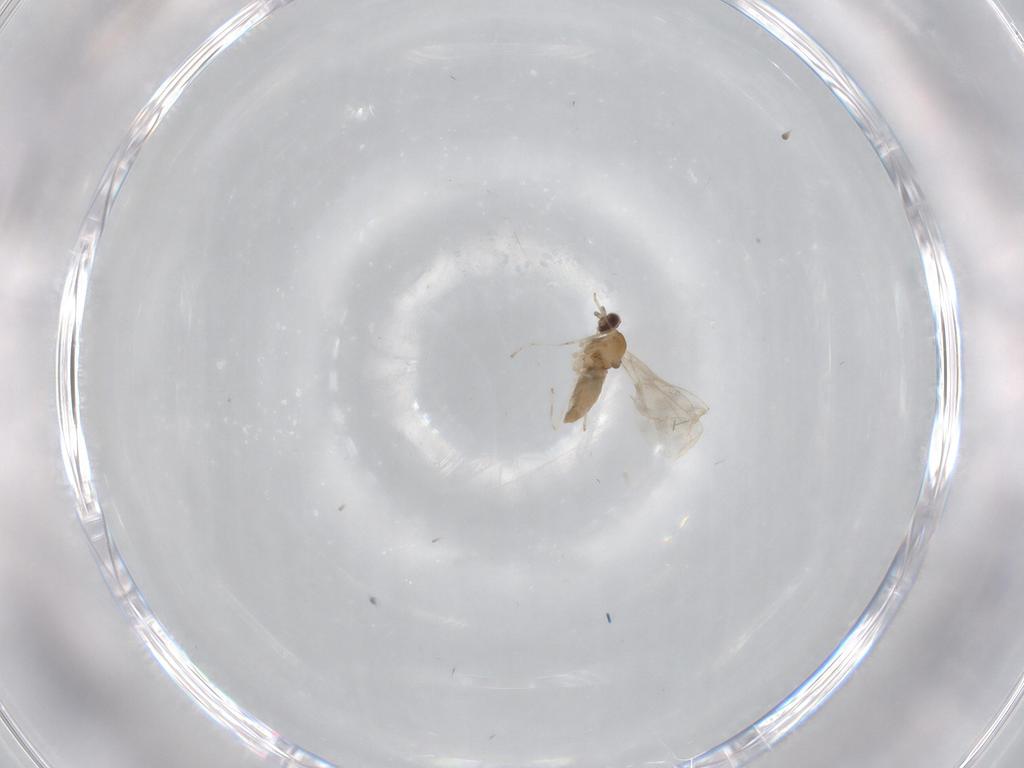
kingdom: Animalia
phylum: Arthropoda
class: Insecta
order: Diptera
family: Cecidomyiidae
